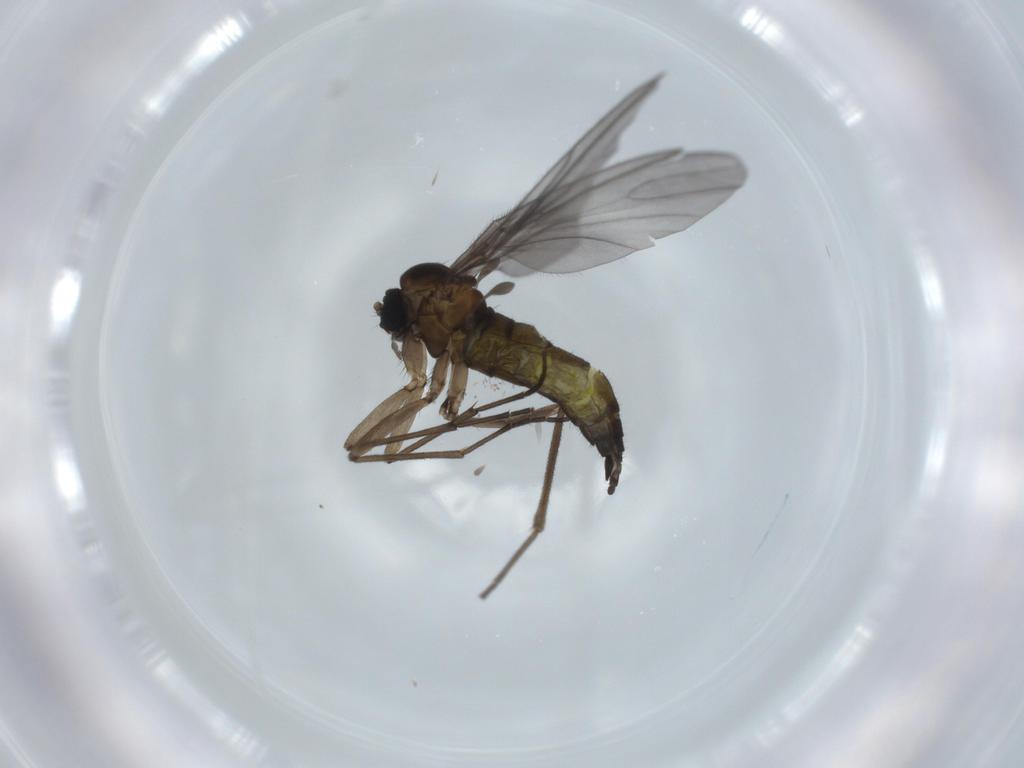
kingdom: Animalia
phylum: Arthropoda
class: Insecta
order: Diptera
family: Sciaridae
